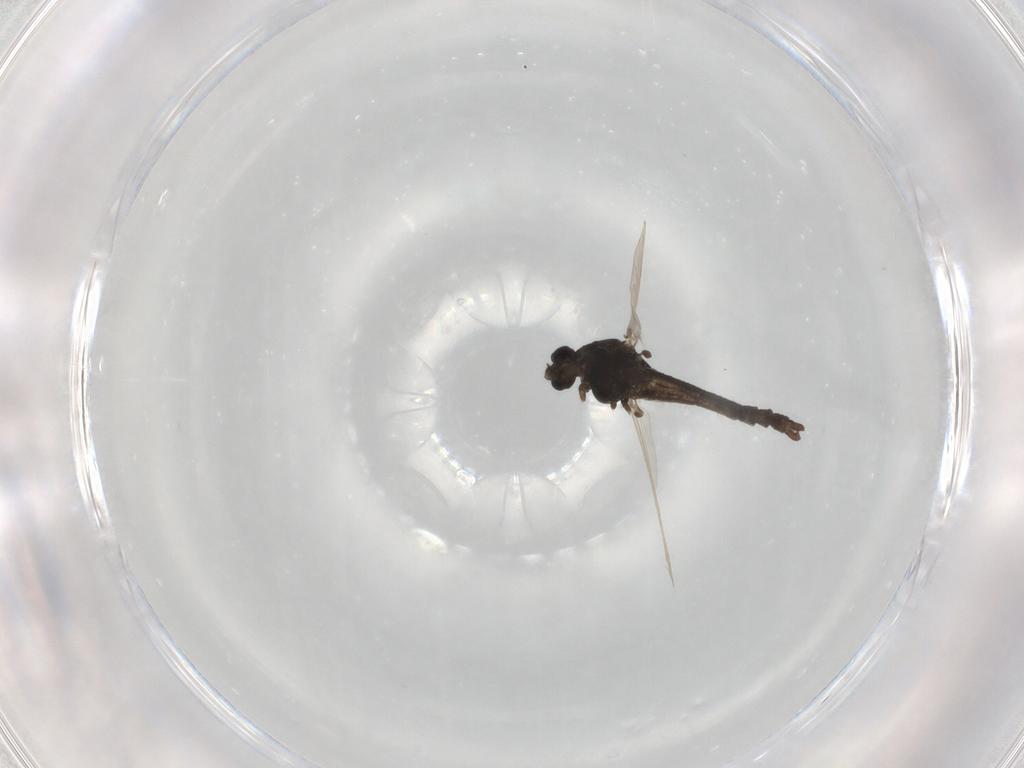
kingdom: Animalia
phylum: Arthropoda
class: Insecta
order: Diptera
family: Chironomidae
